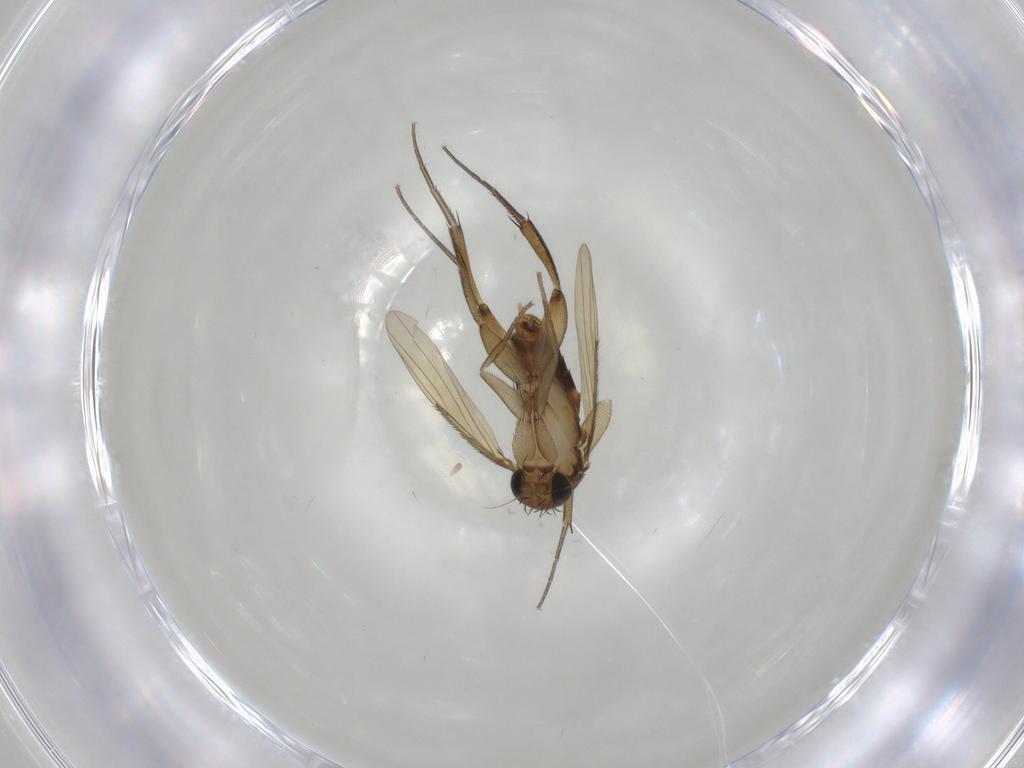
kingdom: Animalia
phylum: Arthropoda
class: Insecta
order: Diptera
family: Phoridae
